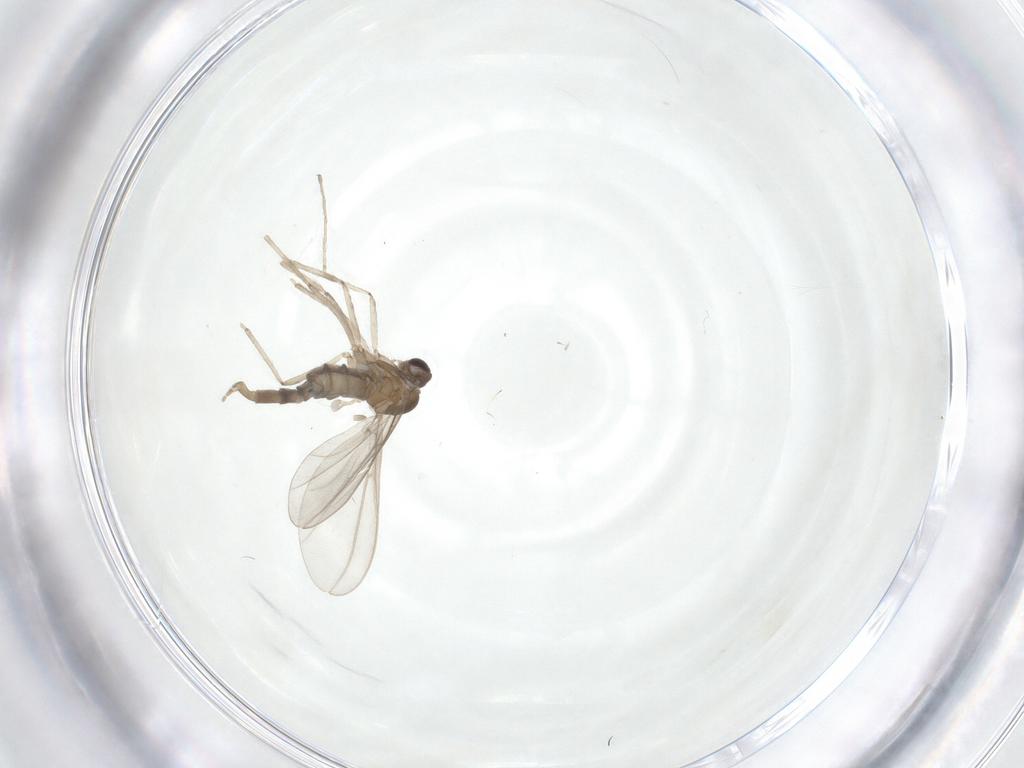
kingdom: Animalia
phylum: Arthropoda
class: Insecta
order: Diptera
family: Cecidomyiidae
